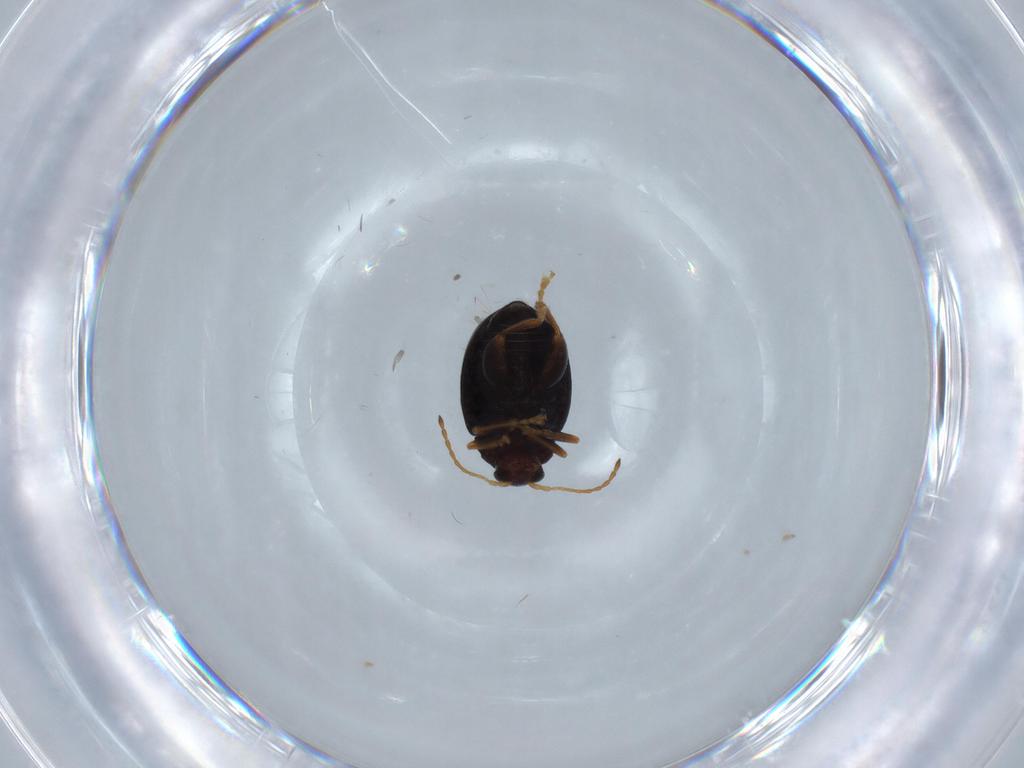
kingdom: Animalia
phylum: Arthropoda
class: Insecta
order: Coleoptera
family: Chrysomelidae
